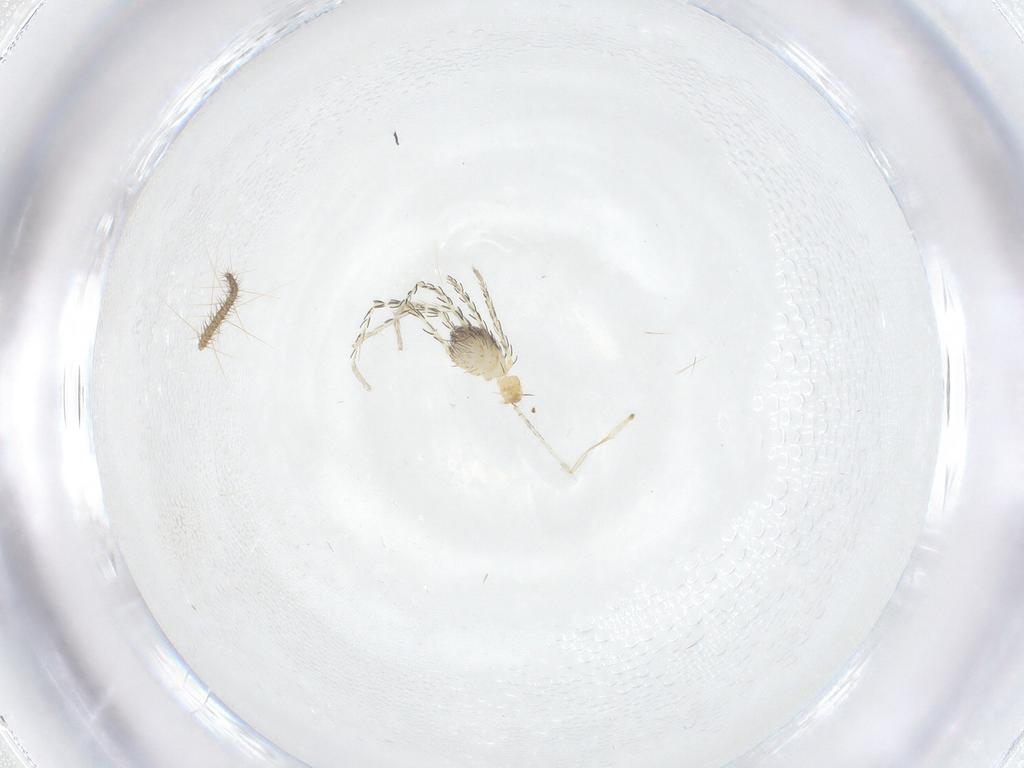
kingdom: Animalia
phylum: Arthropoda
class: Arachnida
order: Trombidiformes
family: Erythraeidae
